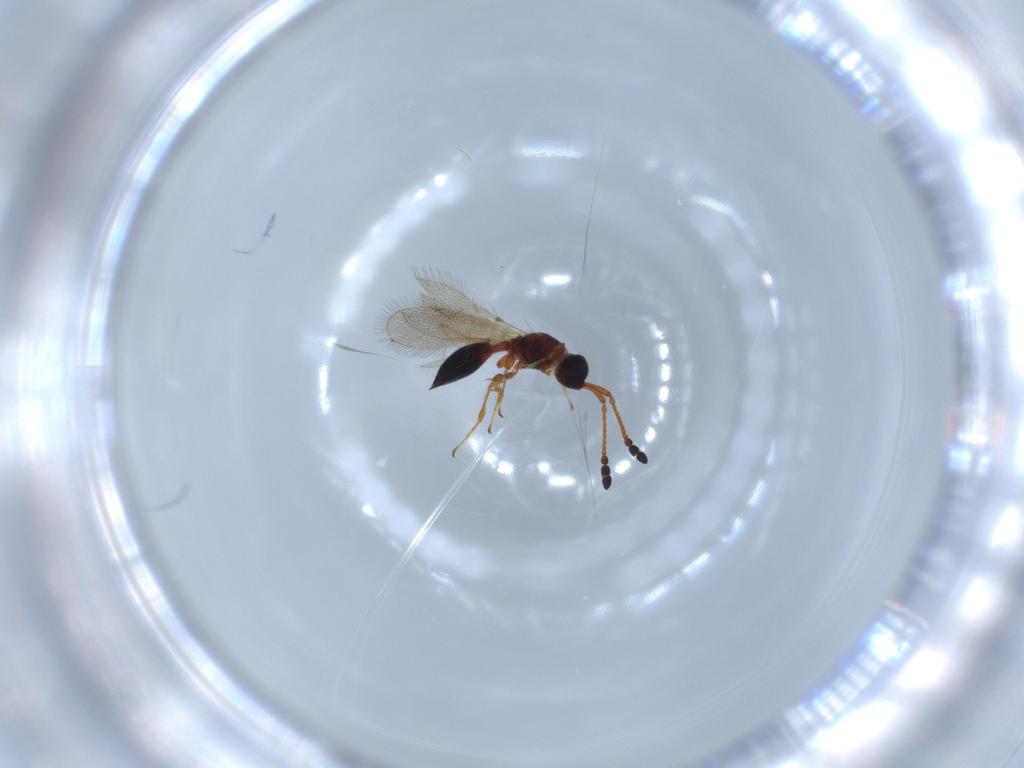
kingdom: Animalia
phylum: Arthropoda
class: Insecta
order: Hymenoptera
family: Diapriidae
